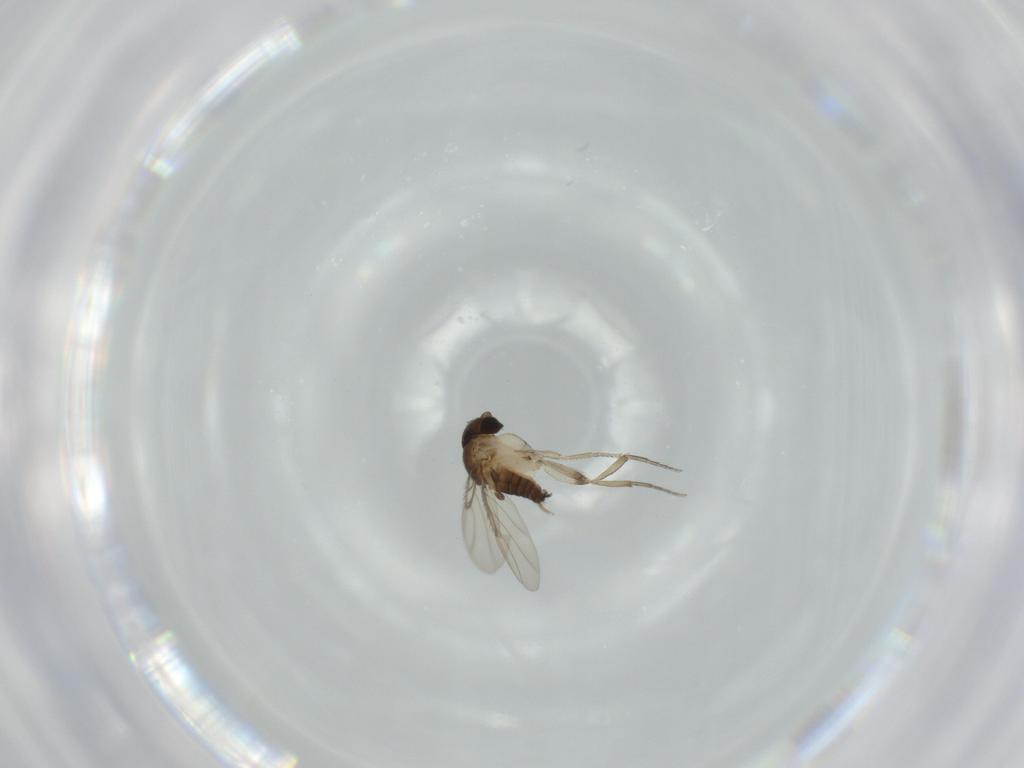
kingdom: Animalia
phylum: Arthropoda
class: Insecta
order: Diptera
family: Phoridae
